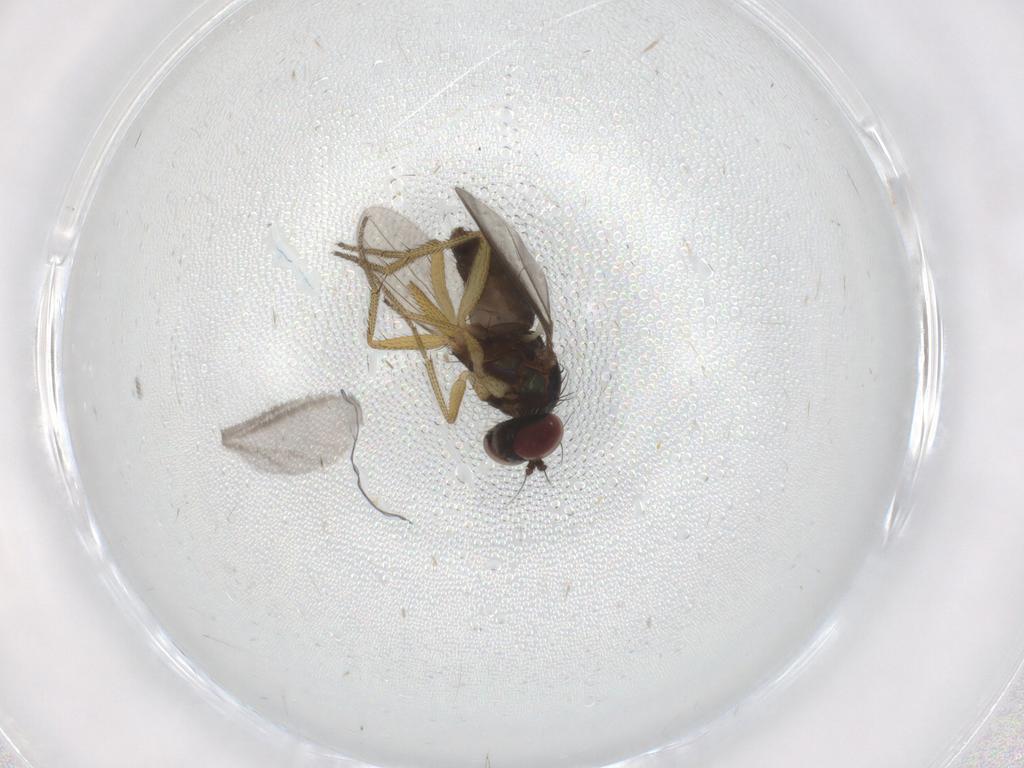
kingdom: Animalia
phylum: Arthropoda
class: Insecta
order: Diptera
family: Sciaridae
